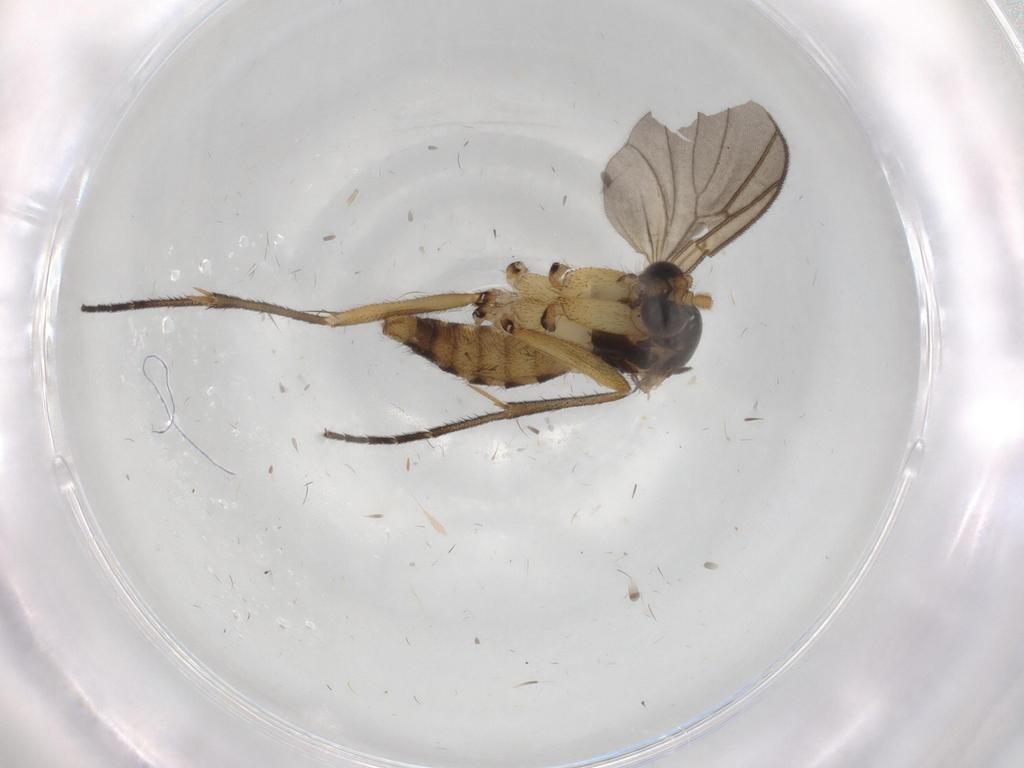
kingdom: Animalia
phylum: Arthropoda
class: Insecta
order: Diptera
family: Mycetophilidae
